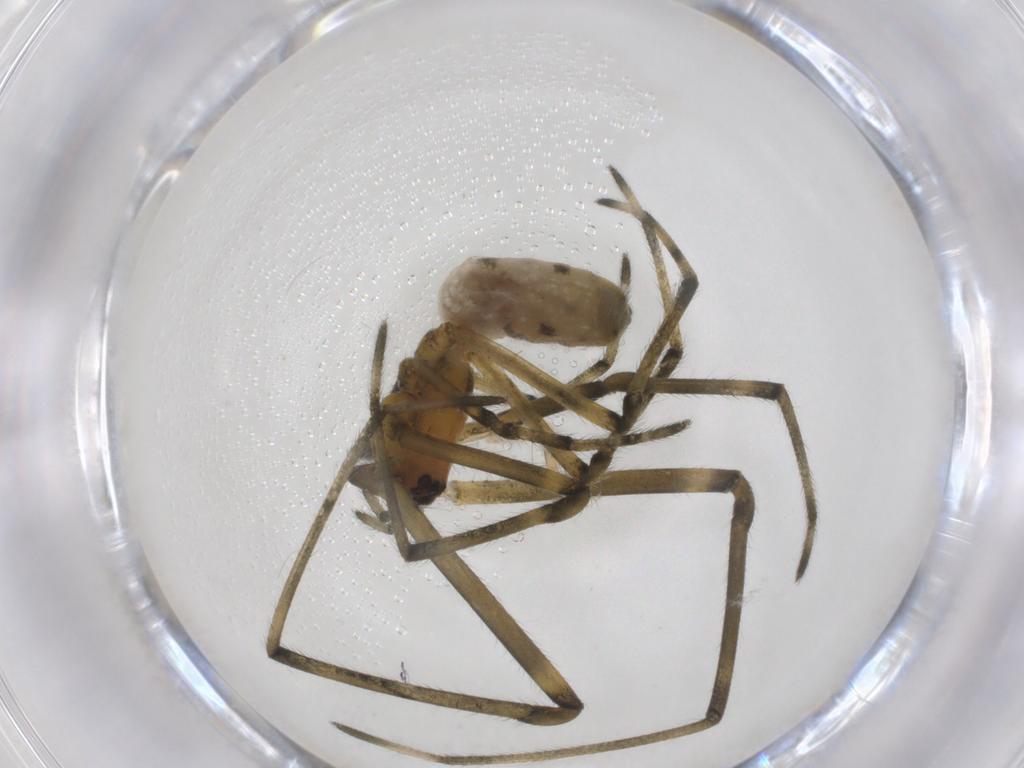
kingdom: Animalia
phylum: Arthropoda
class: Arachnida
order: Araneae
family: Tetragnathidae
